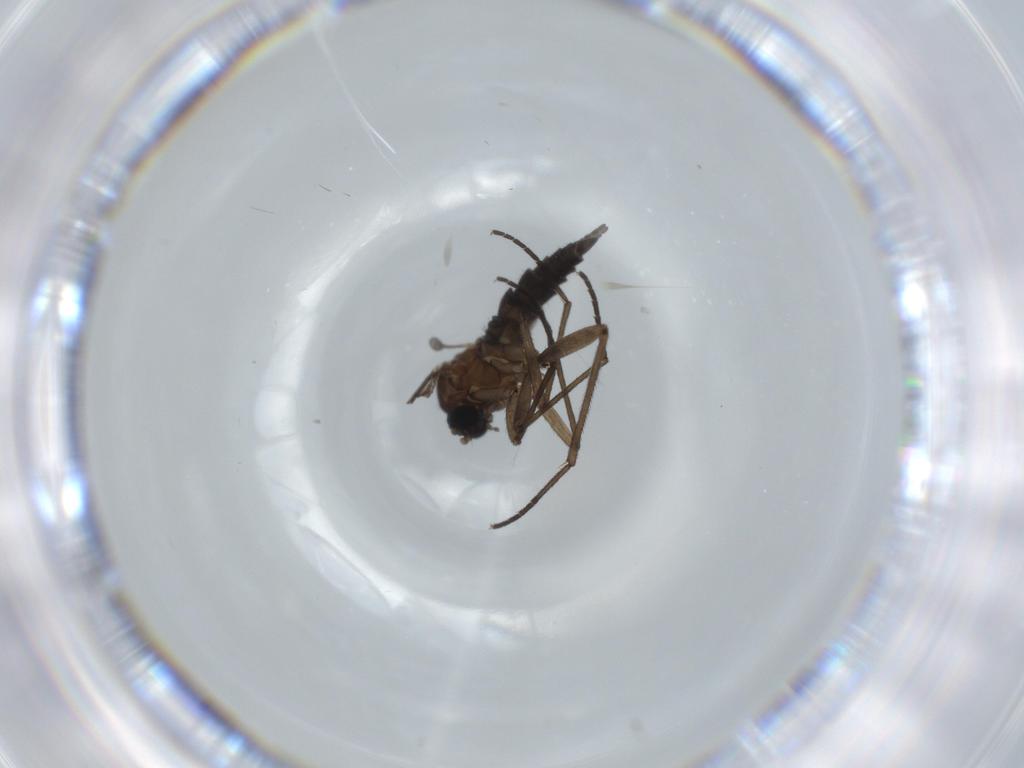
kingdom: Animalia
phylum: Arthropoda
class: Insecta
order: Diptera
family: Sciaridae
